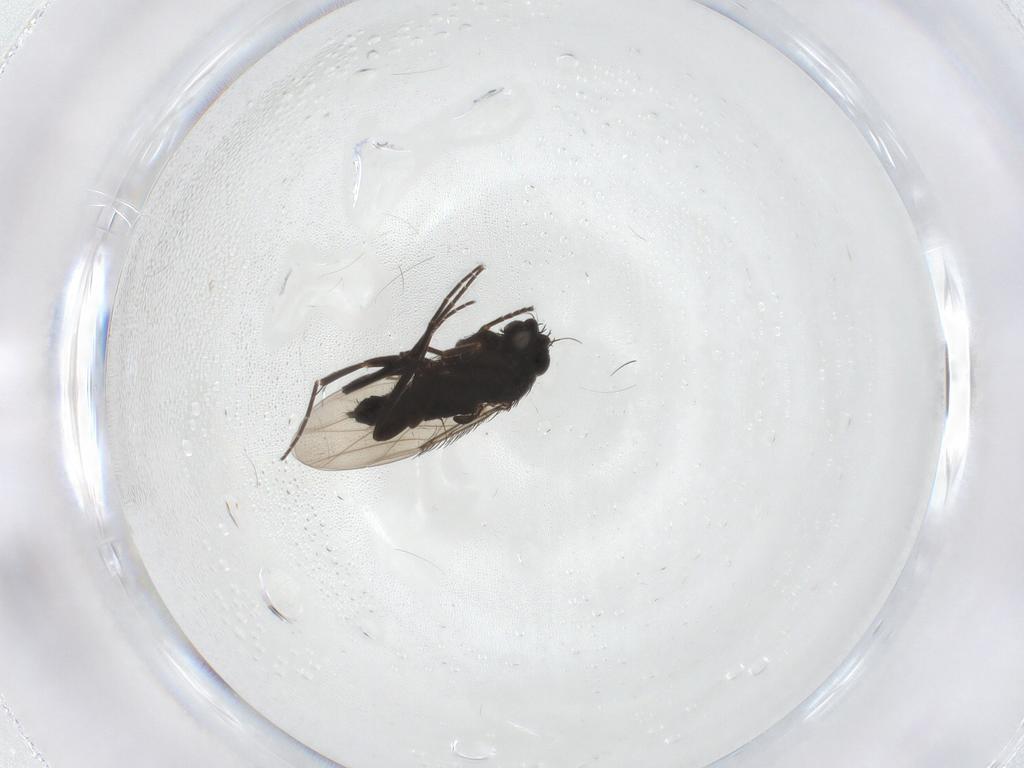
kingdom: Animalia
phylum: Arthropoda
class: Insecta
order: Diptera
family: Phoridae
